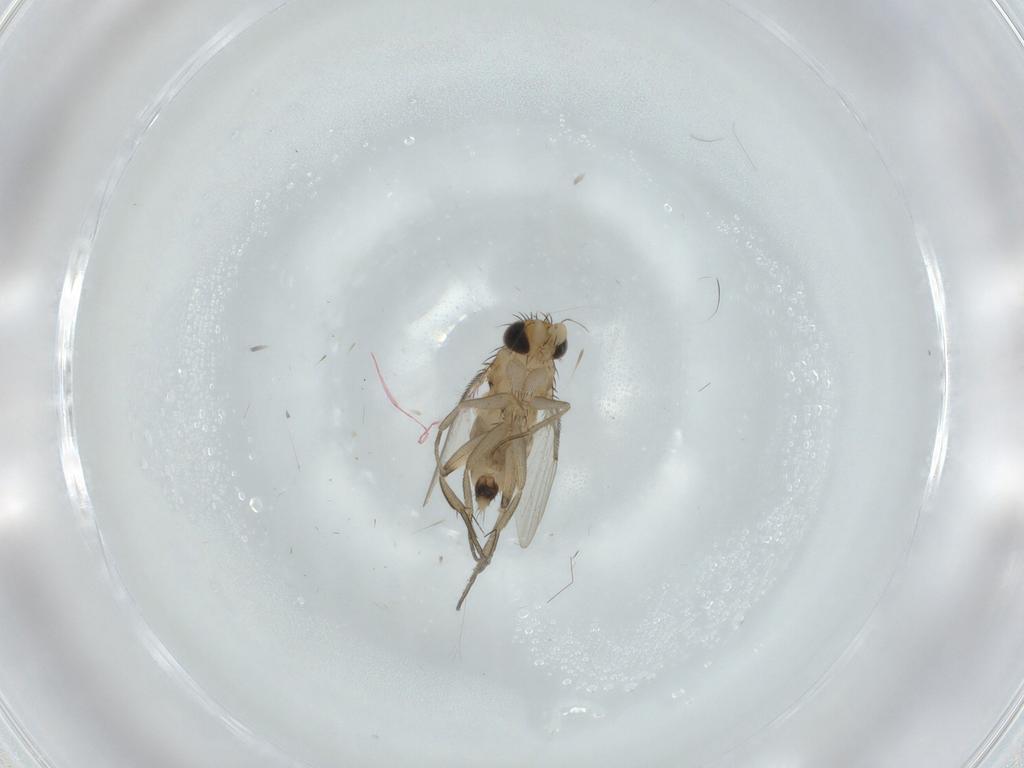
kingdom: Animalia
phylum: Arthropoda
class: Insecta
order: Diptera
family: Phoridae
